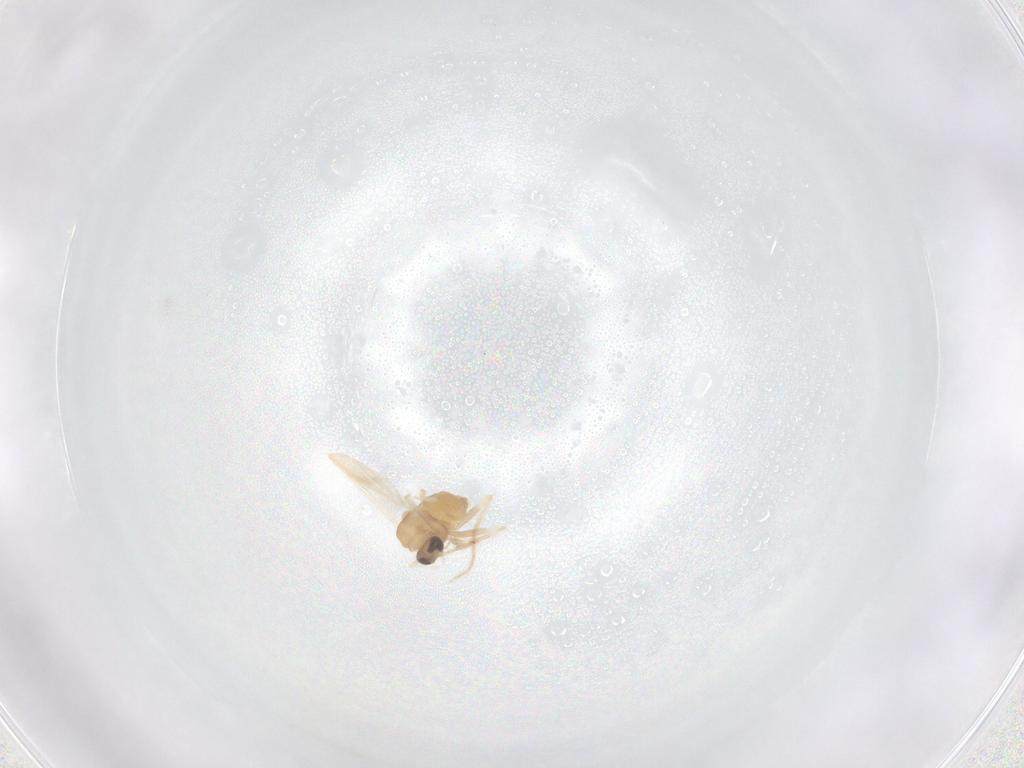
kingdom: Animalia
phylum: Arthropoda
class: Insecta
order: Diptera
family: Chironomidae
